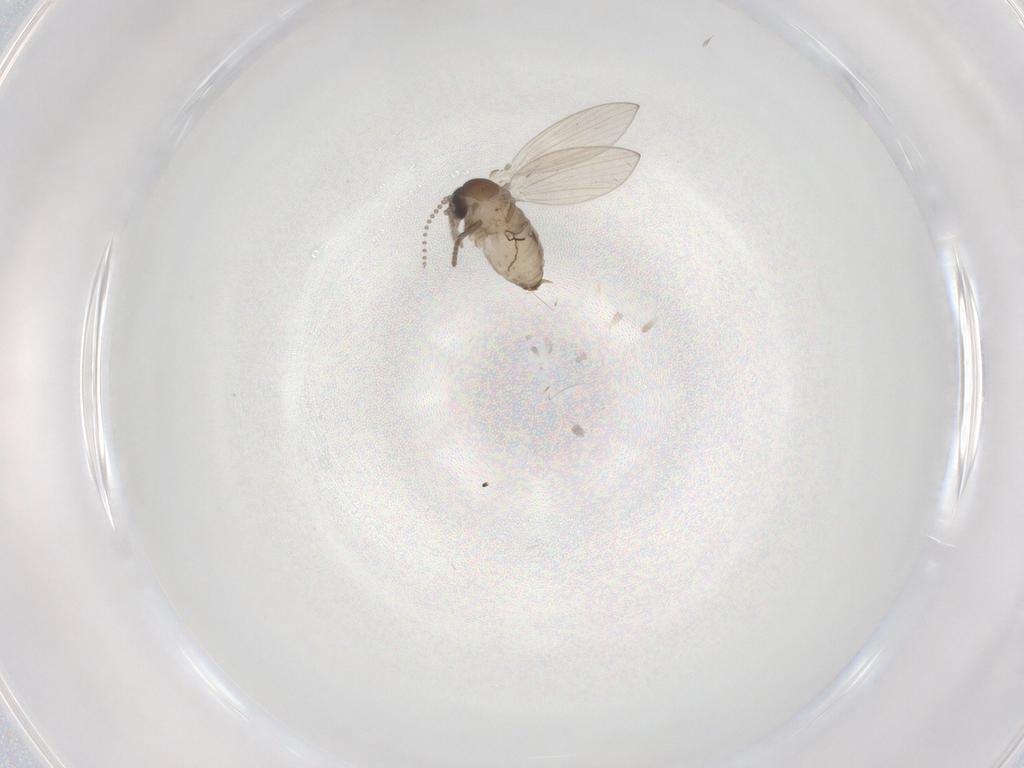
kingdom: Animalia
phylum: Arthropoda
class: Insecta
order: Diptera
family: Psychodidae
